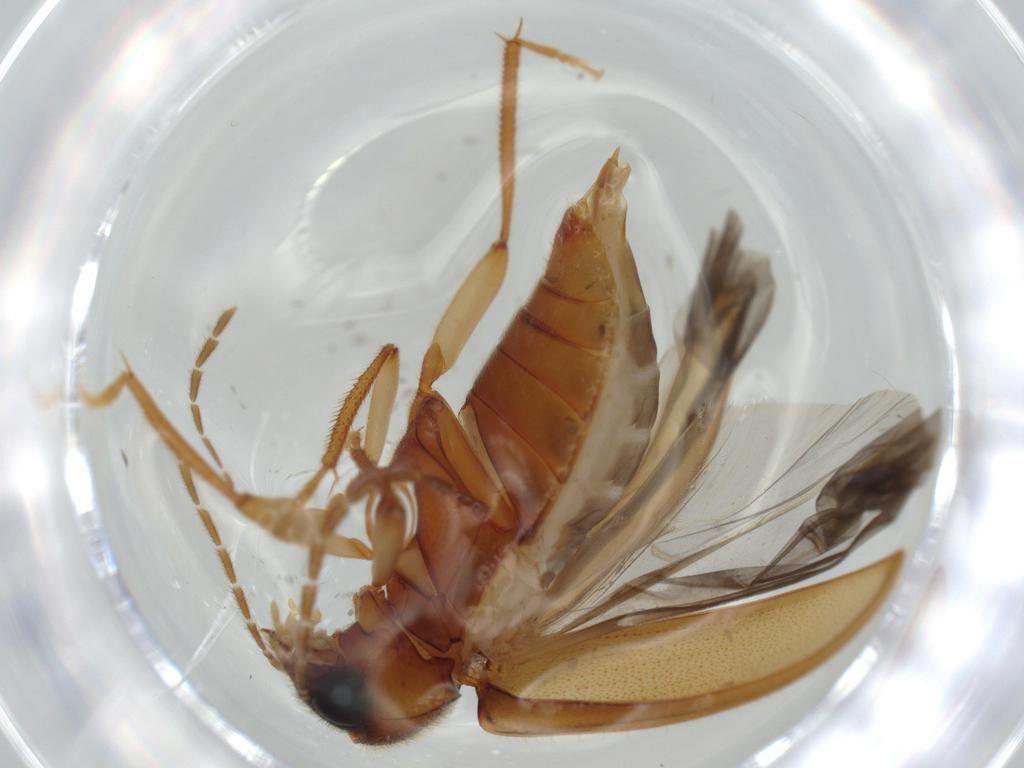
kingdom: Animalia
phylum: Arthropoda
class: Insecta
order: Coleoptera
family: Ptilodactylidae
